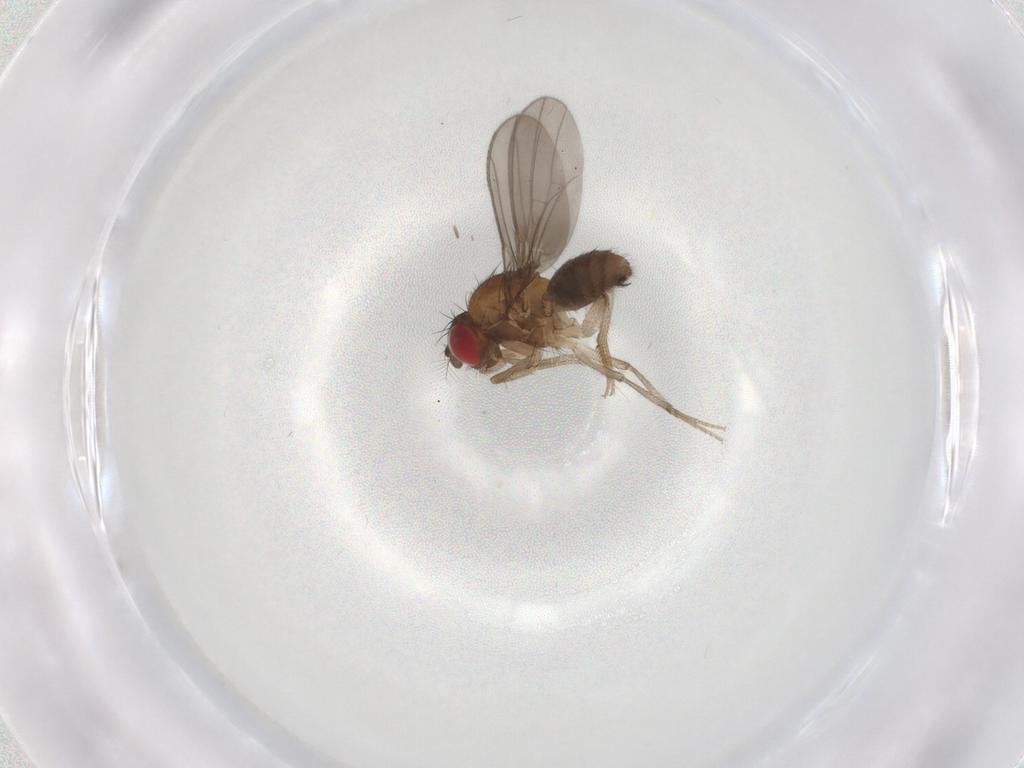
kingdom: Animalia
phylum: Arthropoda
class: Insecta
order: Diptera
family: Drosophilidae
